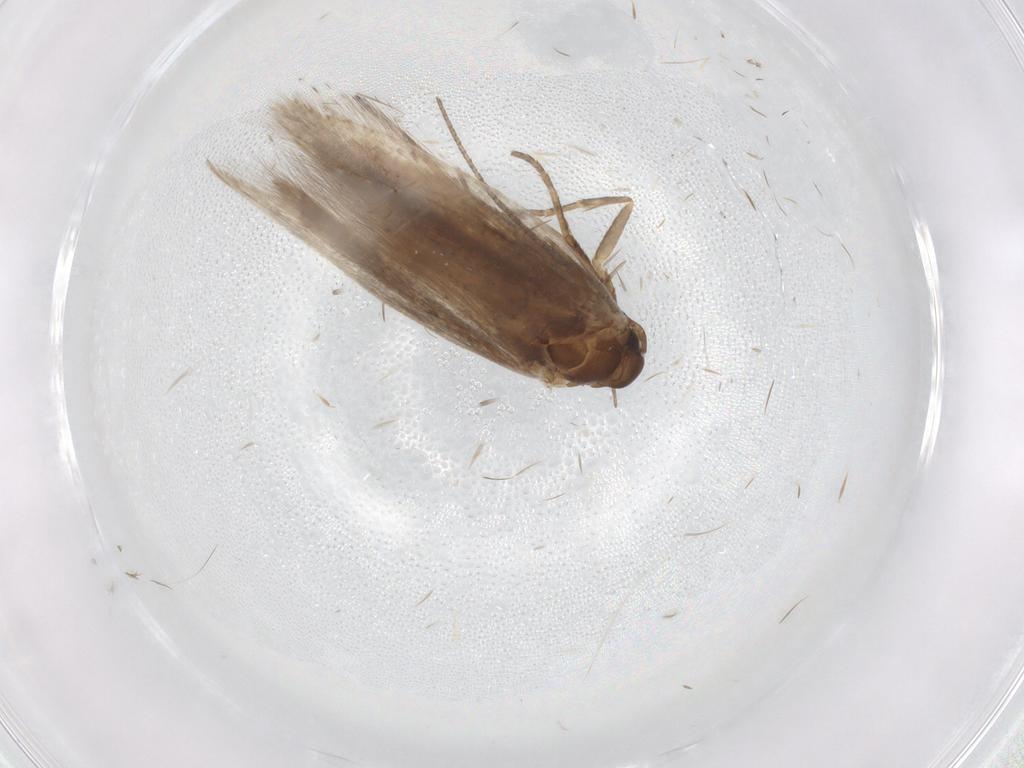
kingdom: Animalia
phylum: Arthropoda
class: Insecta
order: Lepidoptera
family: Gelechiidae
